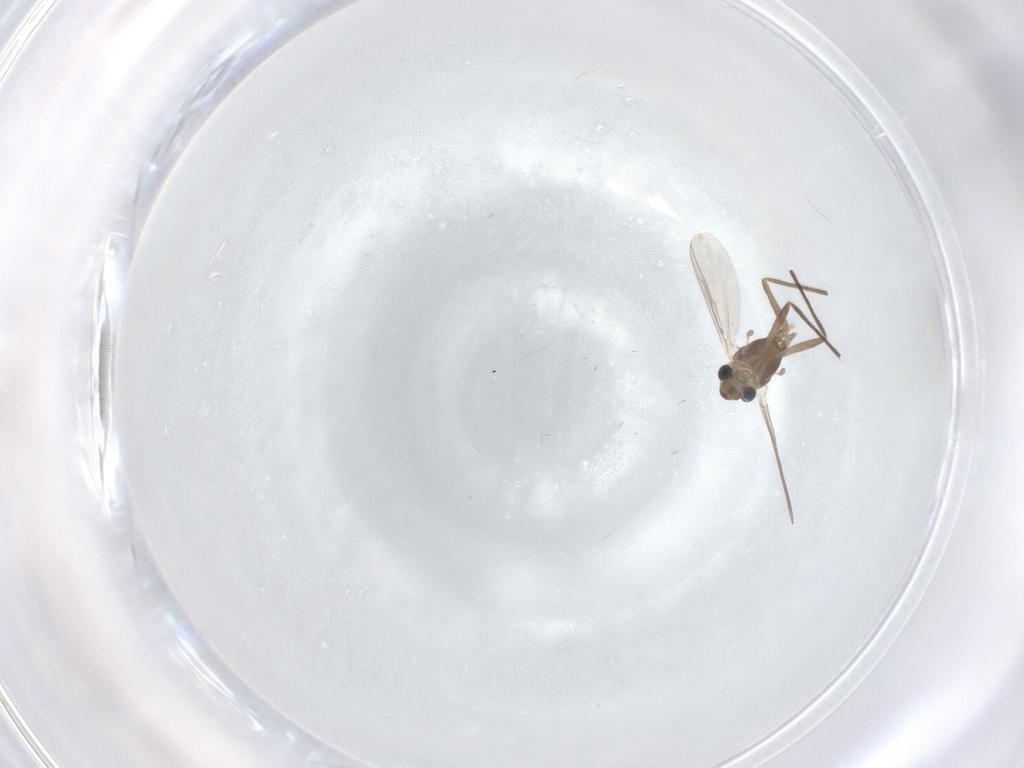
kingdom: Animalia
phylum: Arthropoda
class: Insecta
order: Diptera
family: Chironomidae
